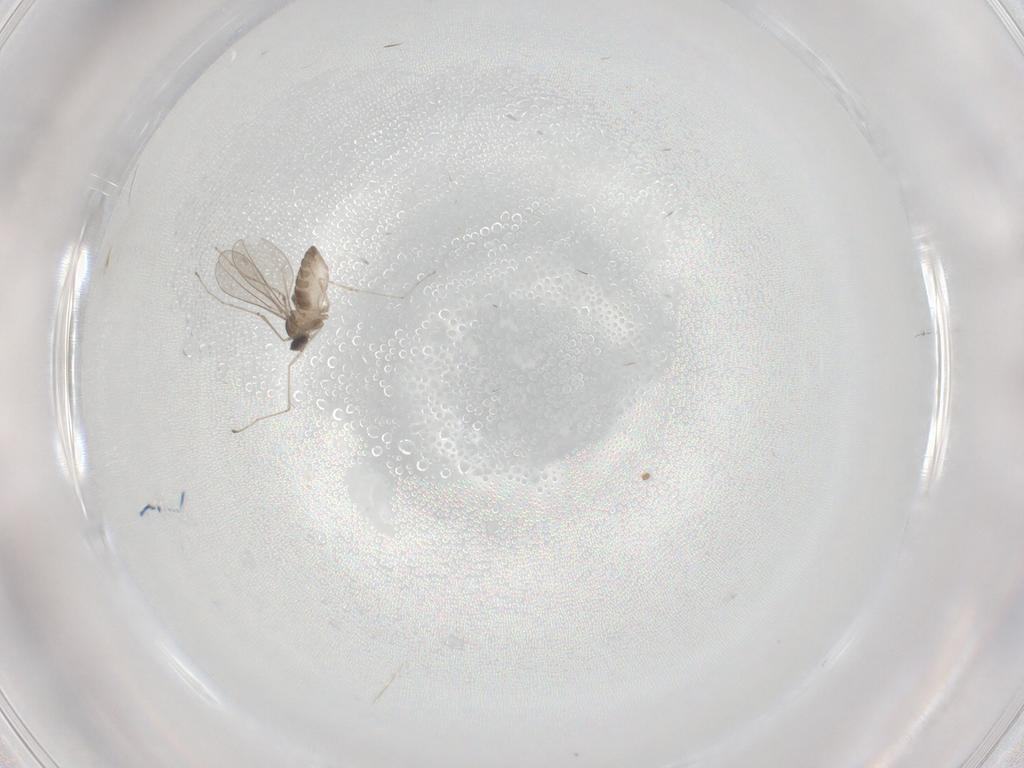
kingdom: Animalia
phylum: Arthropoda
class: Insecta
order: Diptera
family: Cecidomyiidae
